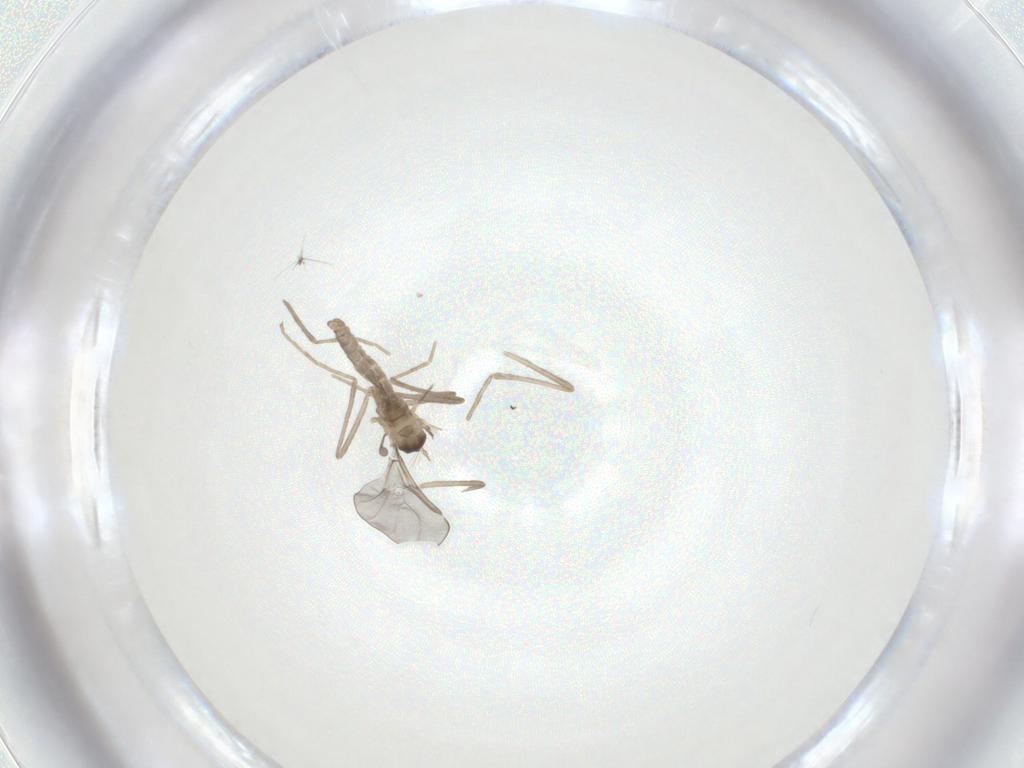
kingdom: Animalia
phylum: Arthropoda
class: Insecta
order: Diptera
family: Cecidomyiidae
